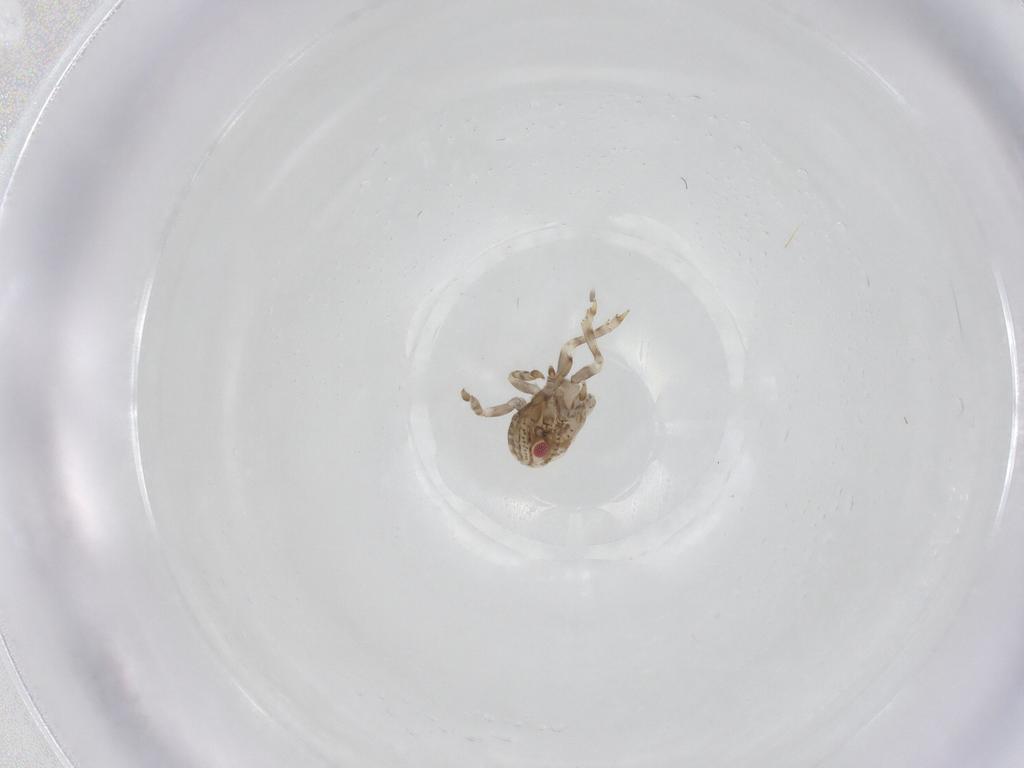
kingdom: Animalia
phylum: Arthropoda
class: Insecta
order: Hemiptera
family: Acanaloniidae
